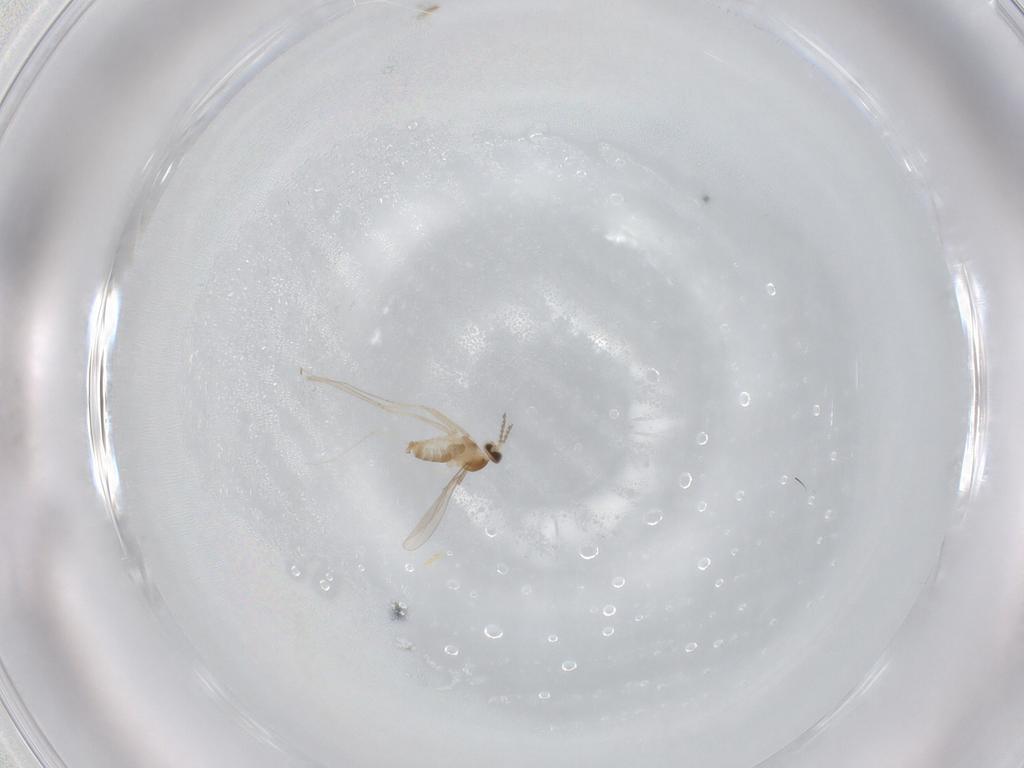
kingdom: Animalia
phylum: Arthropoda
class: Insecta
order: Diptera
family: Cecidomyiidae
